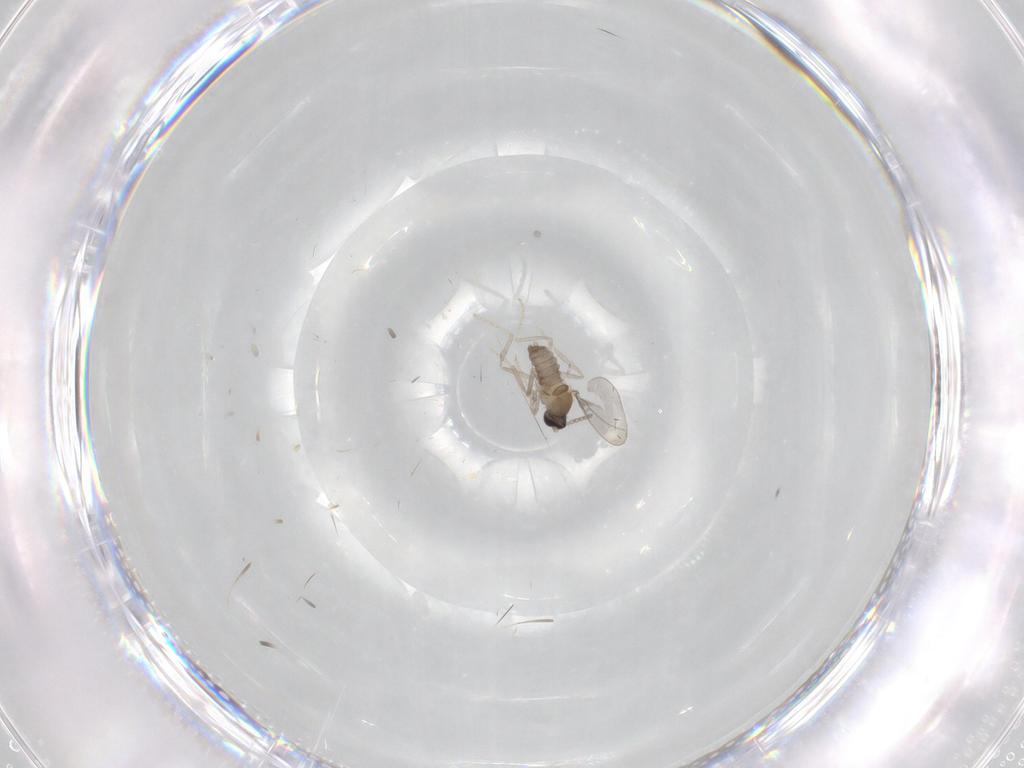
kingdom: Animalia
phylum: Arthropoda
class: Insecta
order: Diptera
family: Cecidomyiidae
